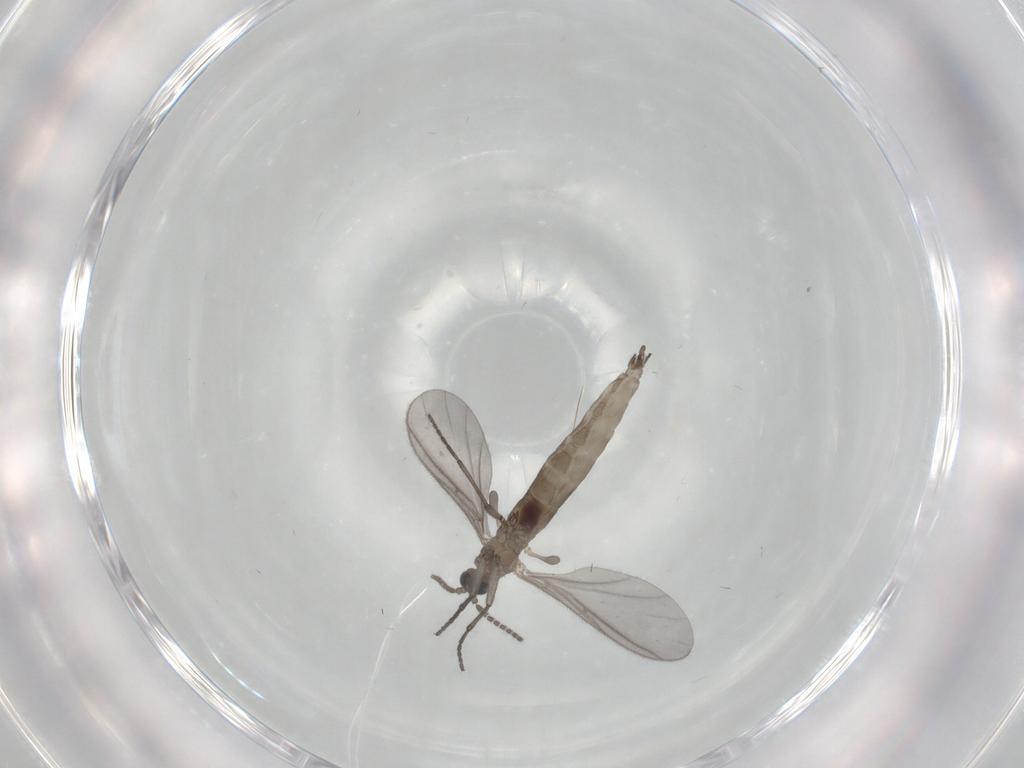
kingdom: Animalia
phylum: Arthropoda
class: Insecta
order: Diptera
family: Sciaridae
